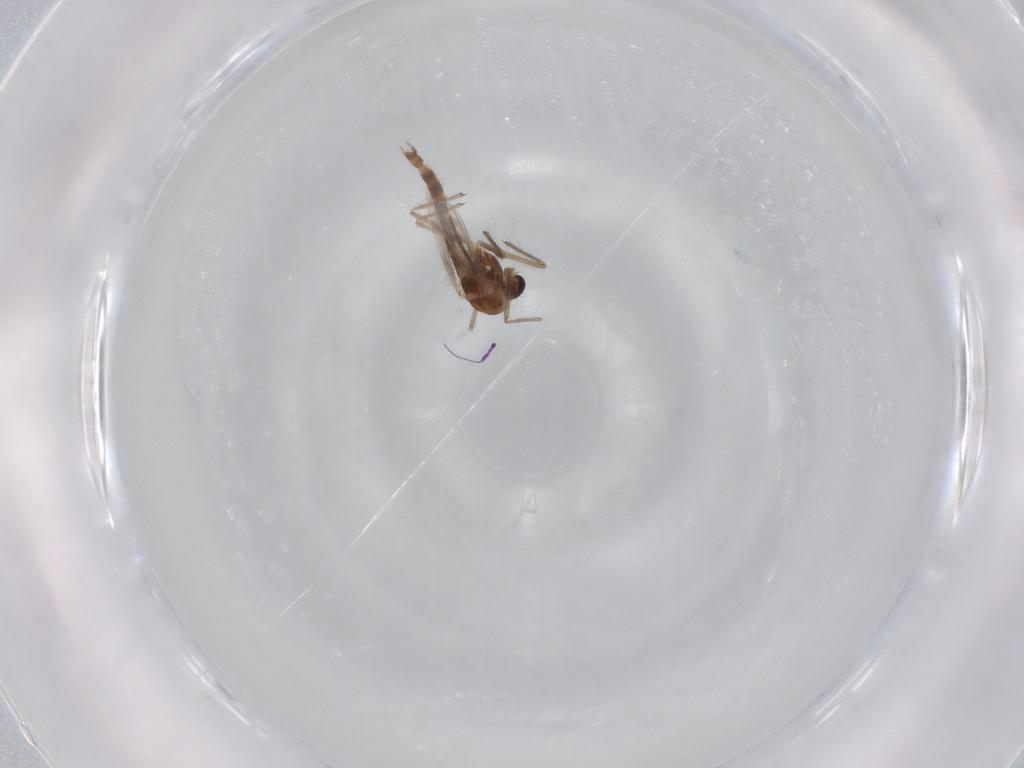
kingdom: Animalia
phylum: Arthropoda
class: Insecta
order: Diptera
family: Chironomidae
